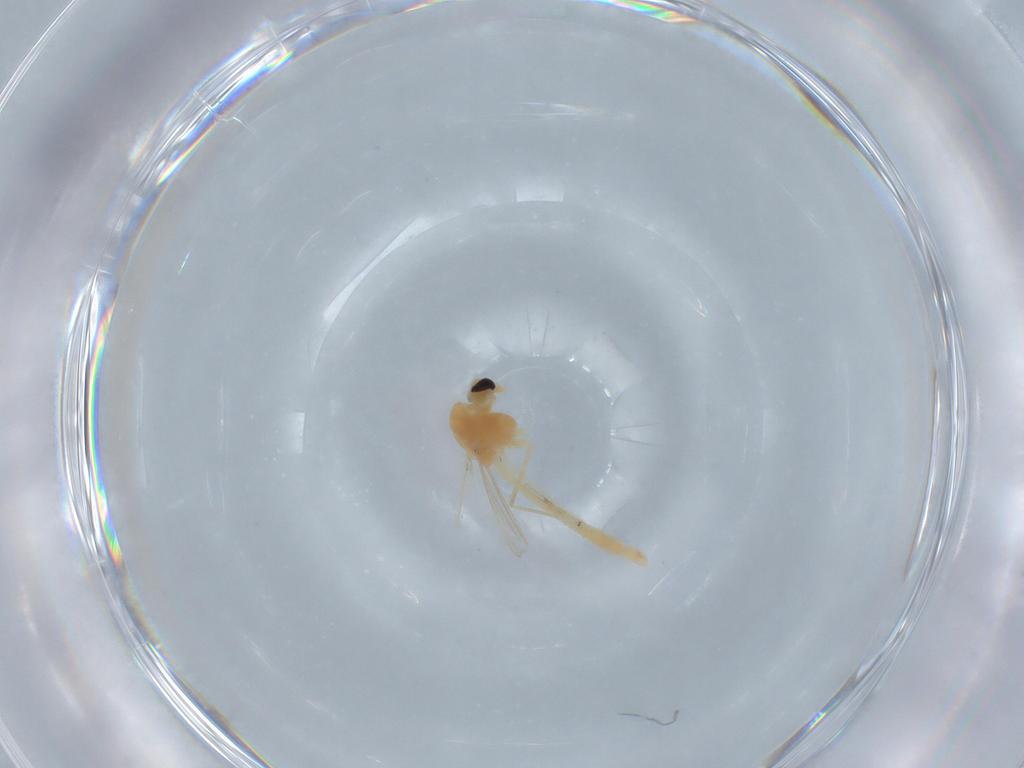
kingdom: Animalia
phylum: Arthropoda
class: Insecta
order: Diptera
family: Chironomidae
